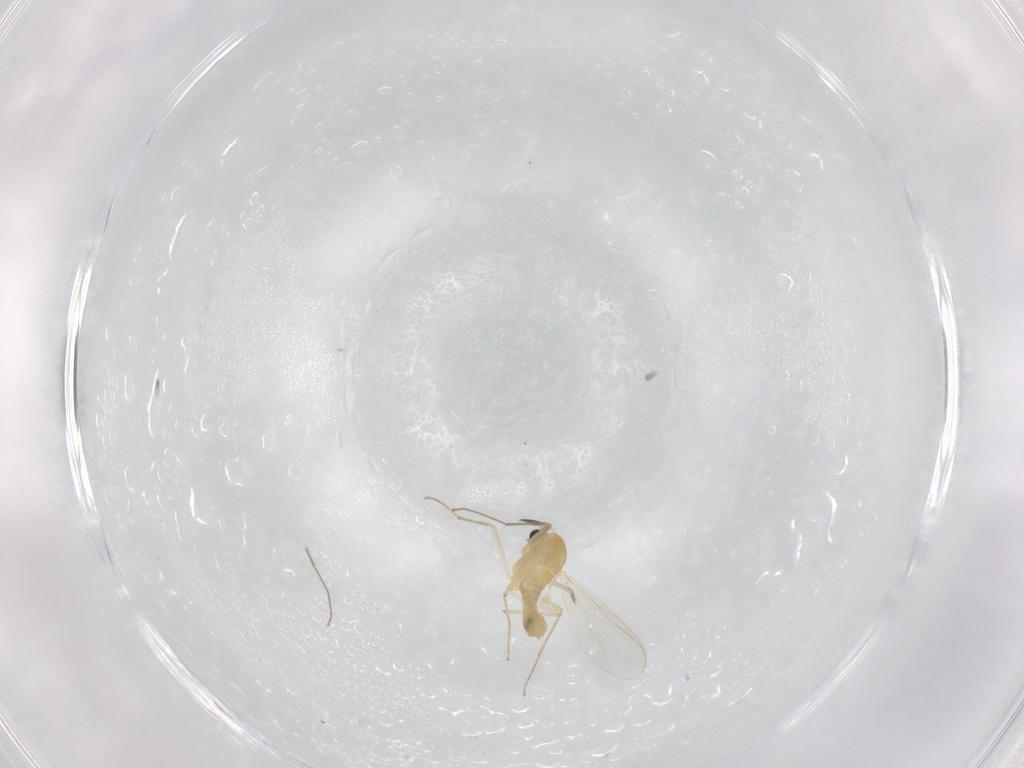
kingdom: Animalia
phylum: Arthropoda
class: Insecta
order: Diptera
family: Chironomidae
